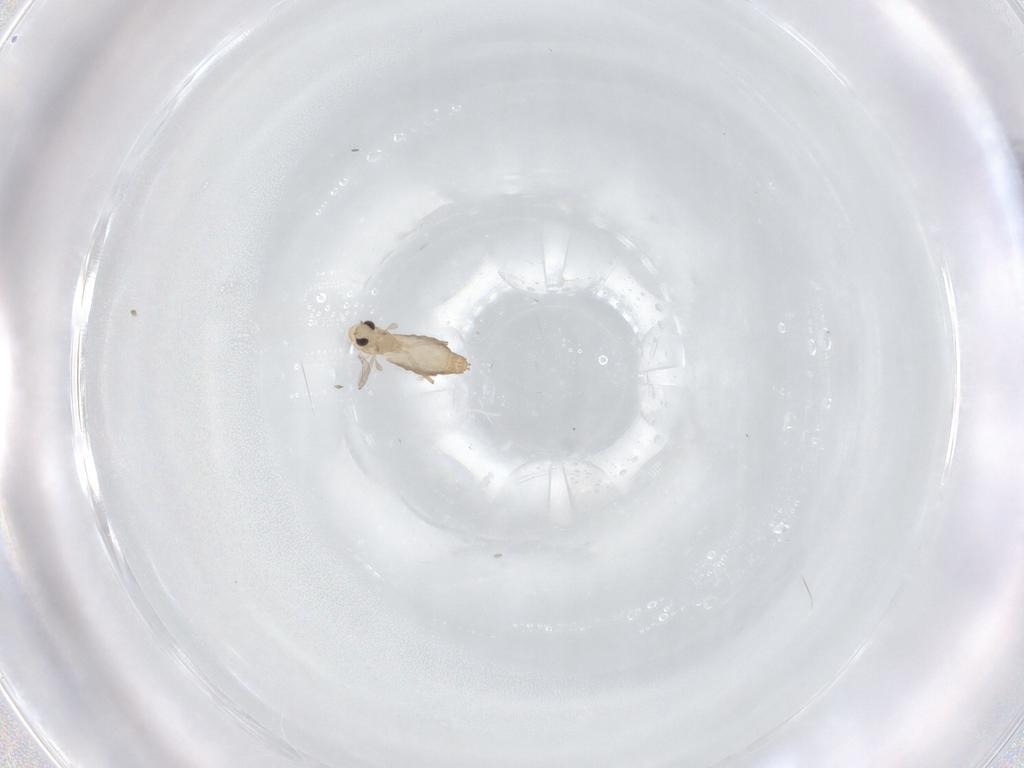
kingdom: Animalia
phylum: Arthropoda
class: Insecta
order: Diptera
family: Chironomidae
